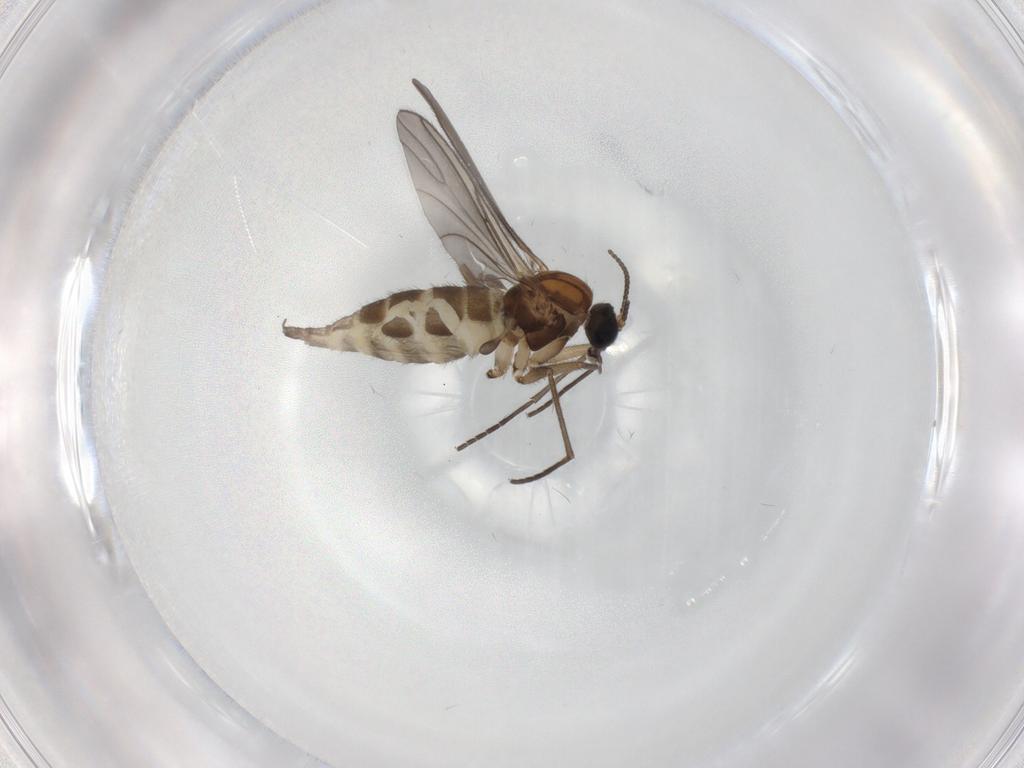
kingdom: Animalia
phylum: Arthropoda
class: Insecta
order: Diptera
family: Sciaridae
